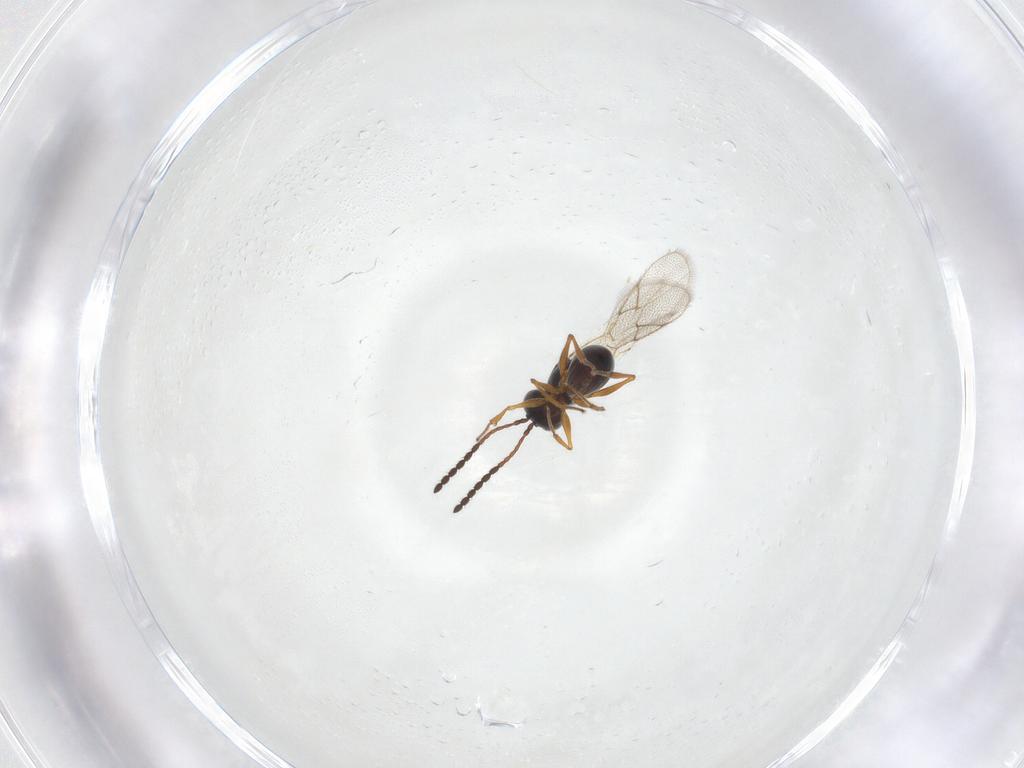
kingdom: Animalia
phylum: Arthropoda
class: Insecta
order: Hymenoptera
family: Figitidae
